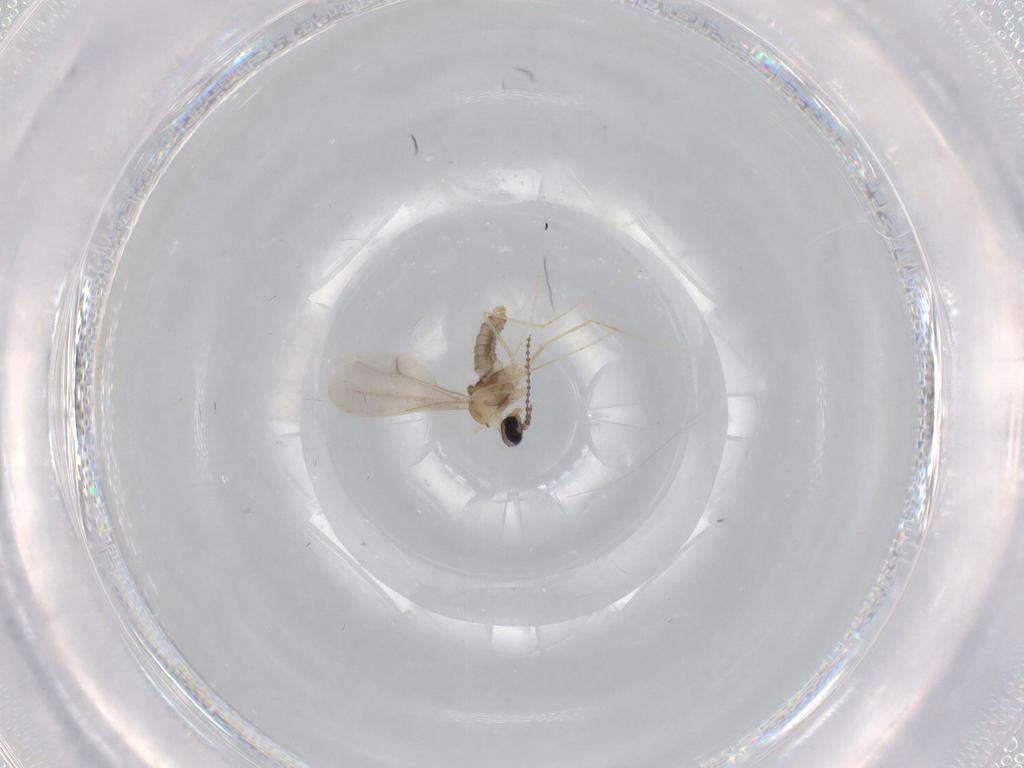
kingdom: Animalia
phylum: Arthropoda
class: Insecta
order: Diptera
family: Cecidomyiidae
